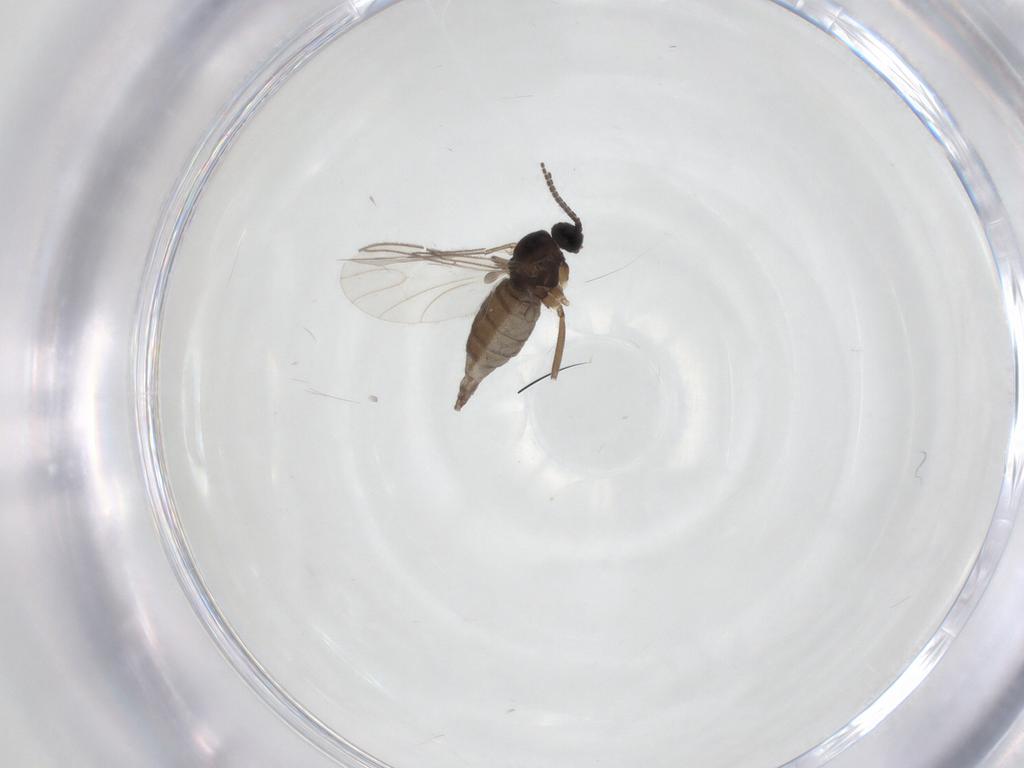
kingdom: Animalia
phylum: Arthropoda
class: Insecta
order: Diptera
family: Sciaridae
